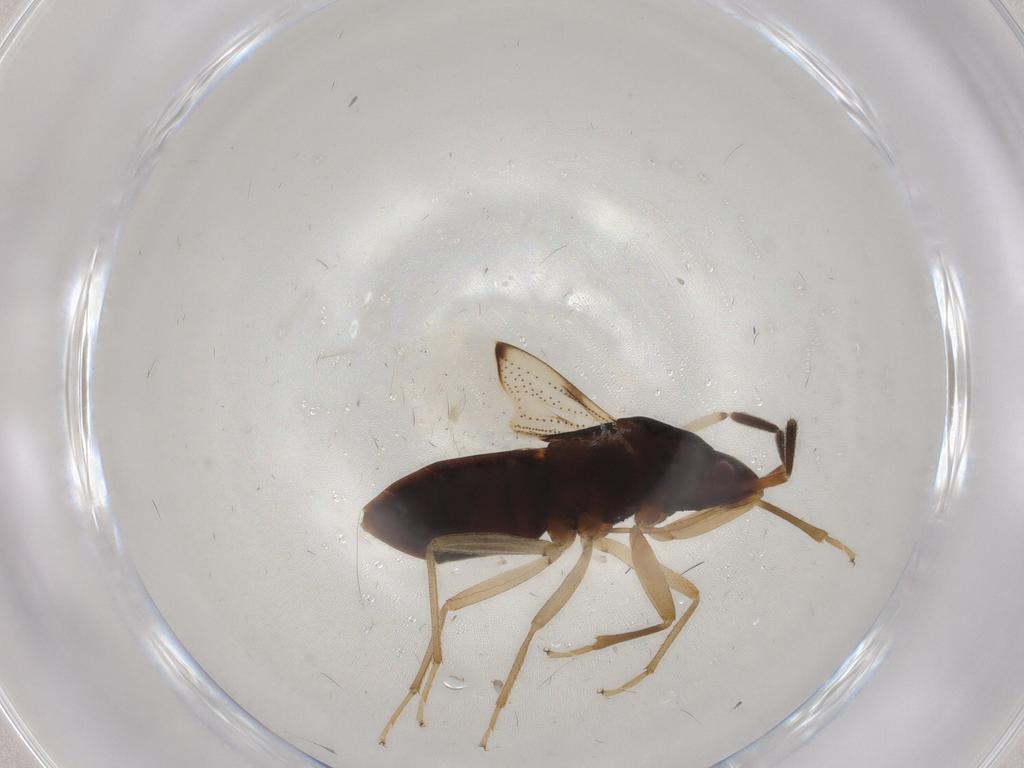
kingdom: Animalia
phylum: Arthropoda
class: Insecta
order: Hemiptera
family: Rhyparochromidae
